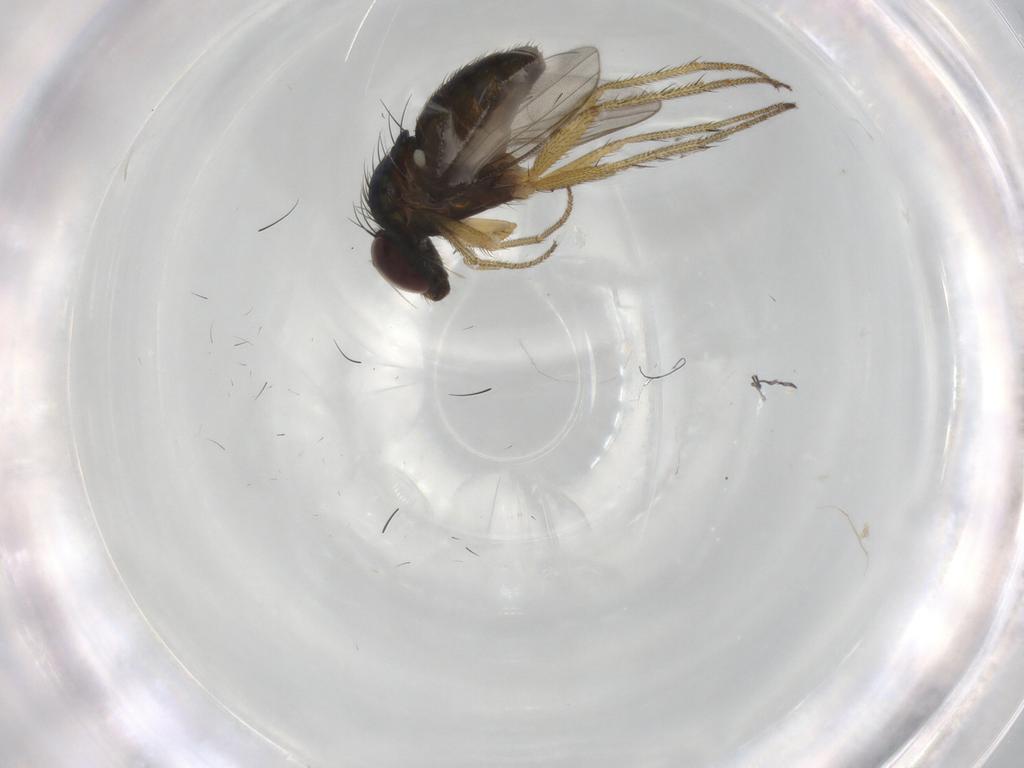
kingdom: Animalia
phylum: Arthropoda
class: Insecta
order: Diptera
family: Dolichopodidae
